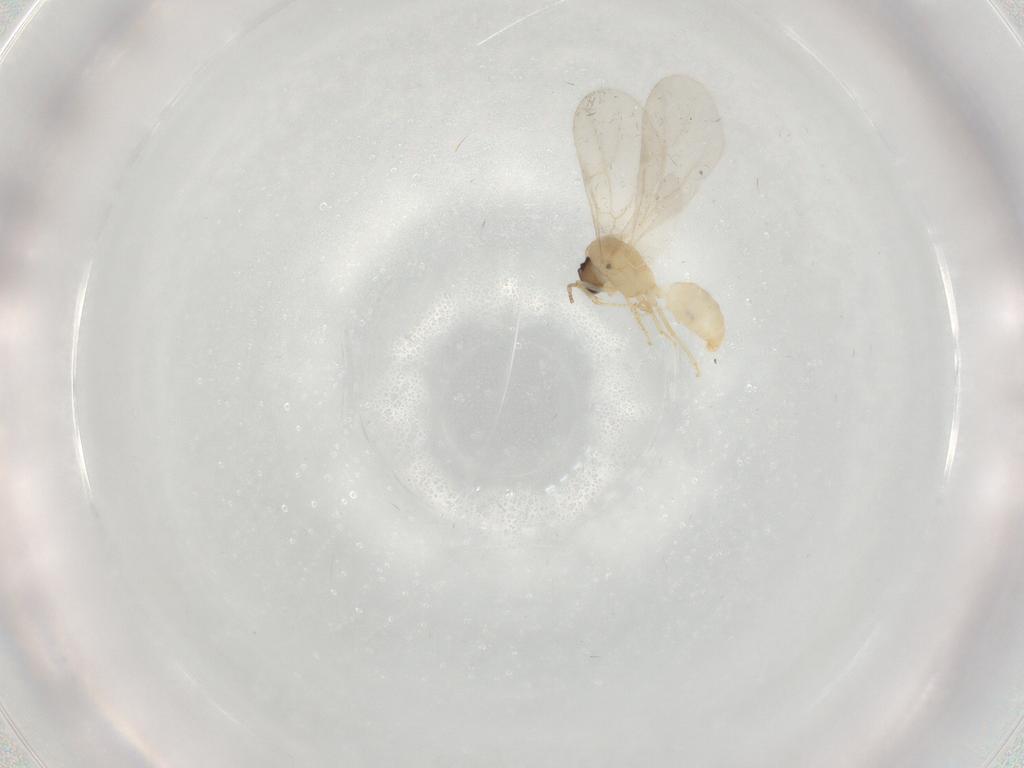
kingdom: Animalia
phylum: Arthropoda
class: Insecta
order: Hymenoptera
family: Formicidae
